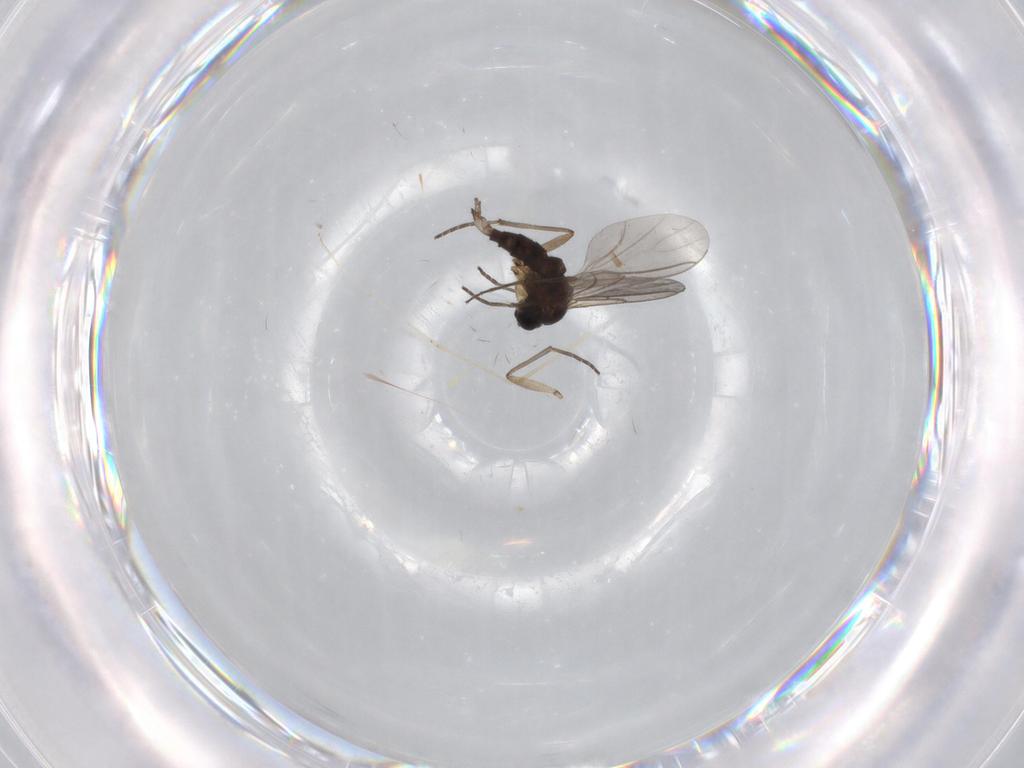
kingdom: Animalia
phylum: Arthropoda
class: Insecta
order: Diptera
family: Sciaridae
